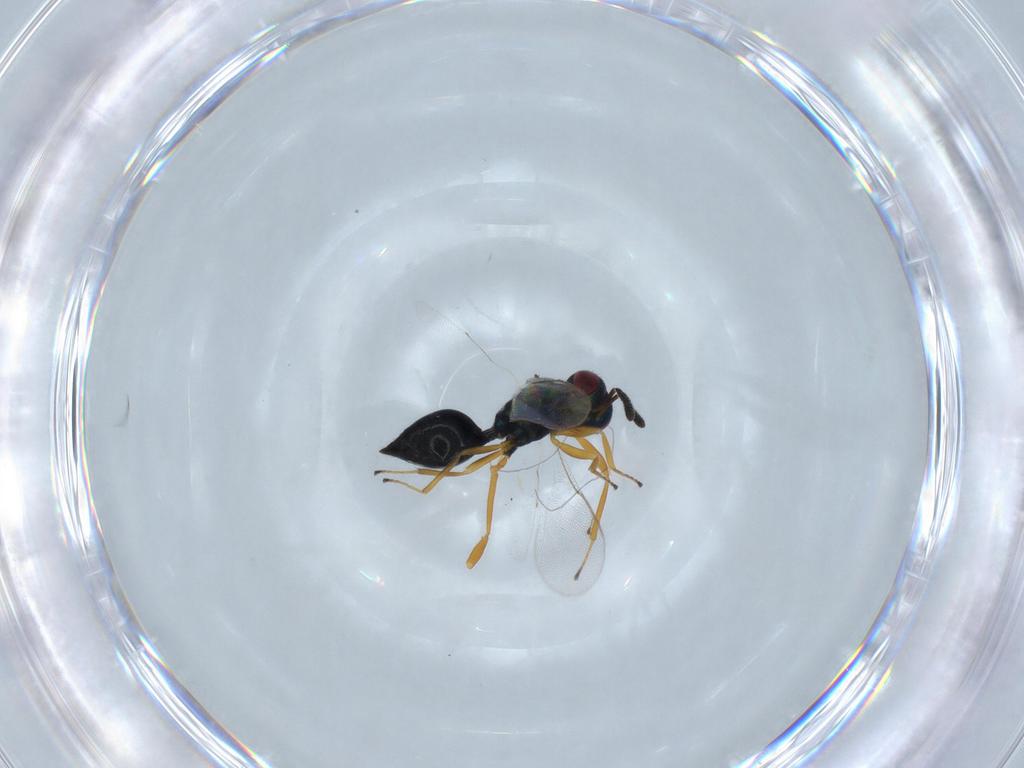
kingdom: Animalia
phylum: Arthropoda
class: Insecta
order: Hymenoptera
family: Pteromalidae
